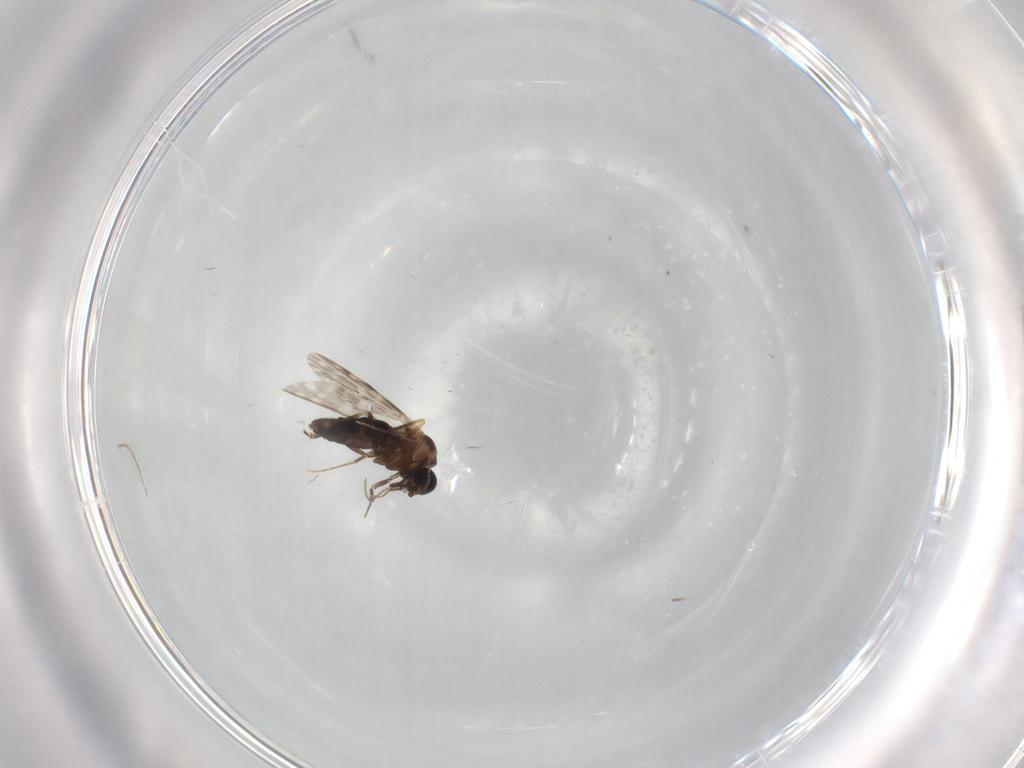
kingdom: Animalia
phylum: Arthropoda
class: Insecta
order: Diptera
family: Ceratopogonidae
